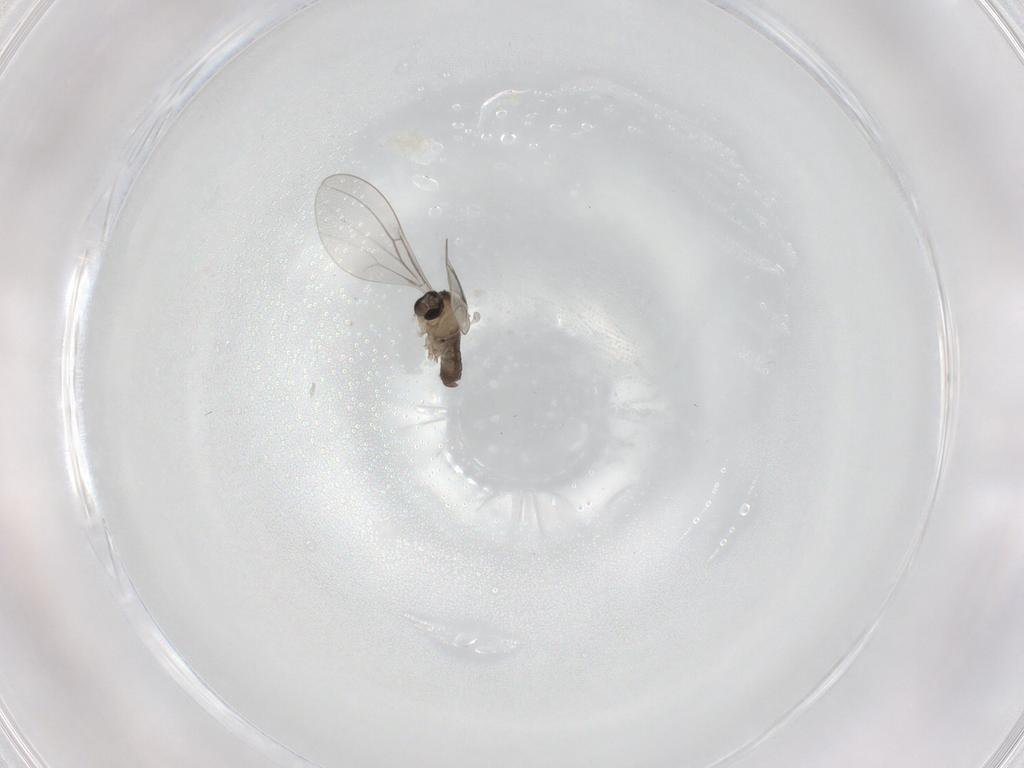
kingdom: Animalia
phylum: Arthropoda
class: Insecta
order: Diptera
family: Cecidomyiidae
